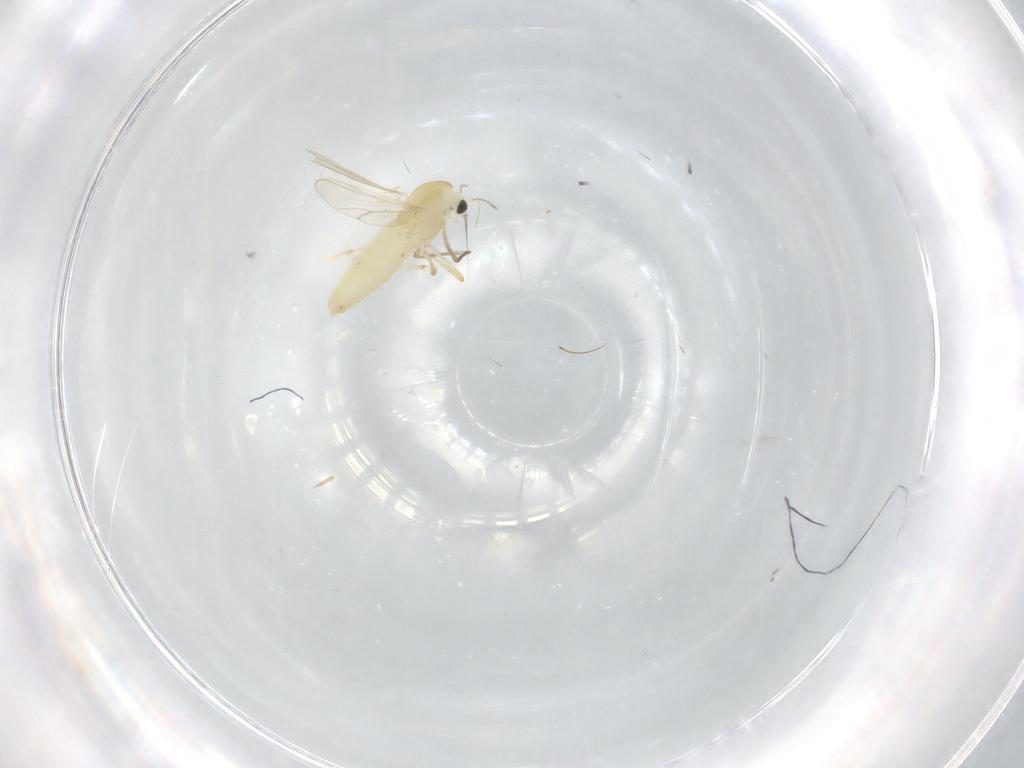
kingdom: Animalia
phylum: Arthropoda
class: Insecta
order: Diptera
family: Chironomidae
